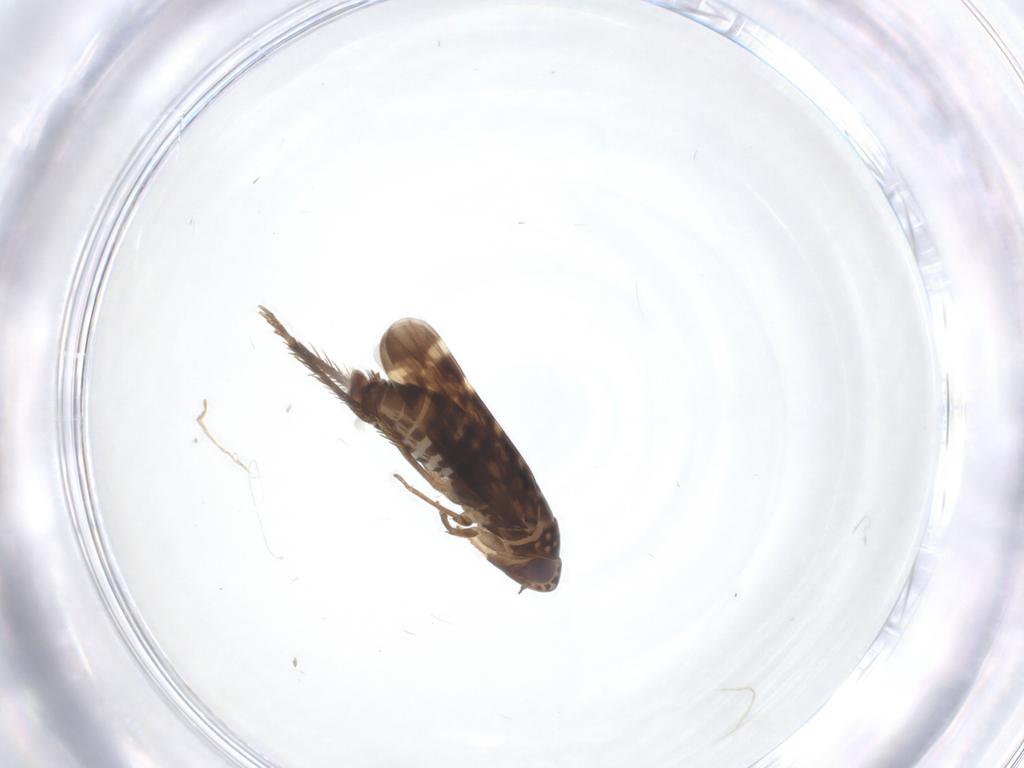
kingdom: Animalia
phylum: Arthropoda
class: Insecta
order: Hemiptera
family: Cicadellidae
